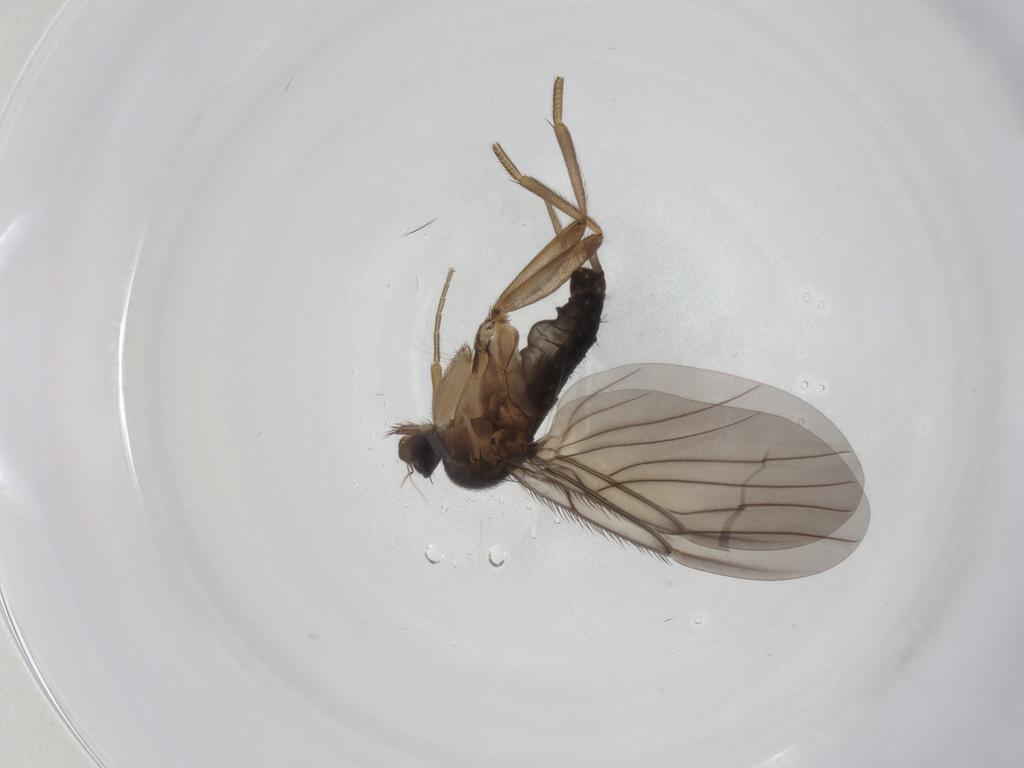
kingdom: Animalia
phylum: Arthropoda
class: Insecta
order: Diptera
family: Phoridae
